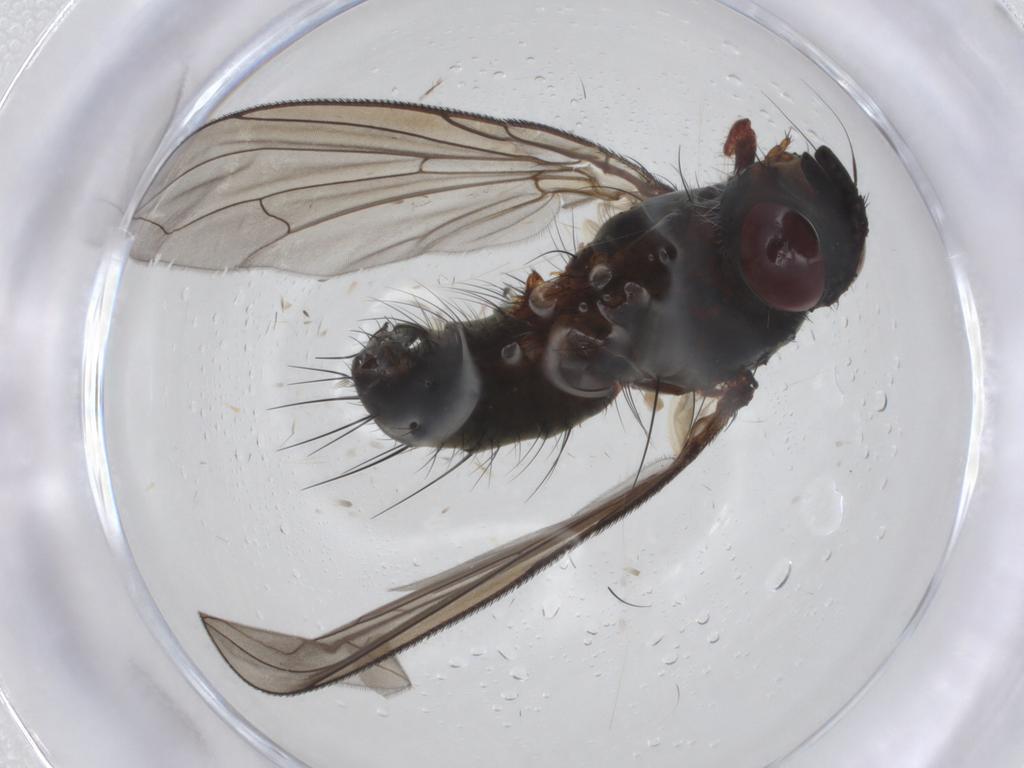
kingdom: Animalia
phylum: Arthropoda
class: Insecta
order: Diptera
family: Tachinidae
